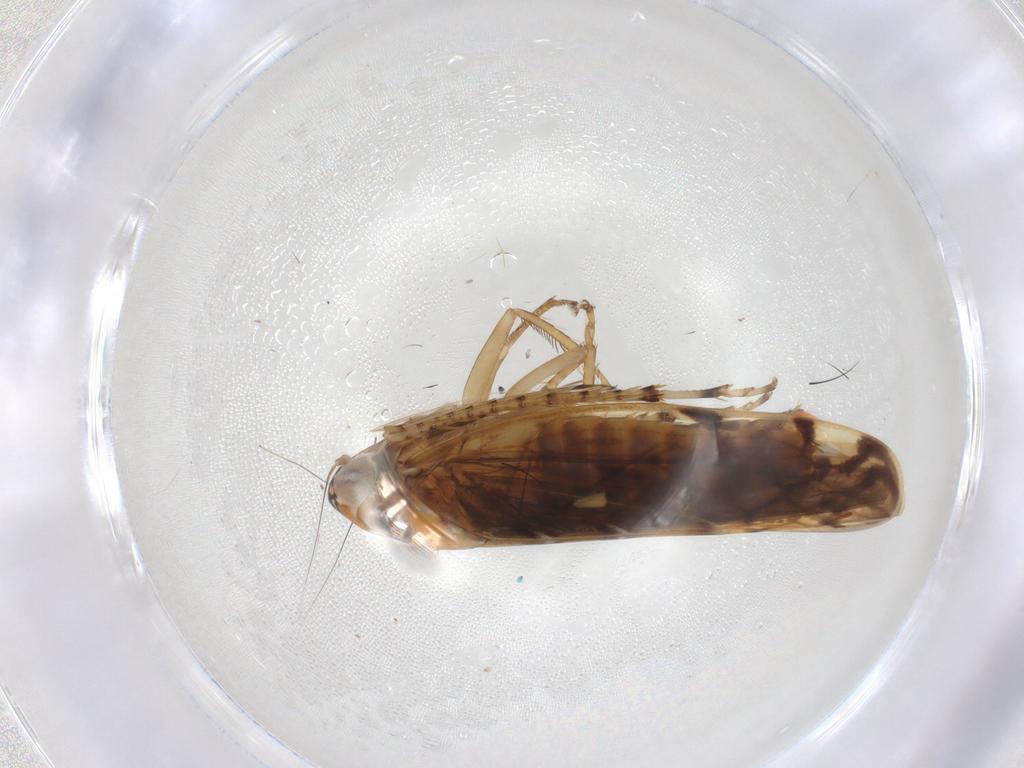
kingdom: Animalia
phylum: Arthropoda
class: Insecta
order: Hemiptera
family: Cicadellidae
